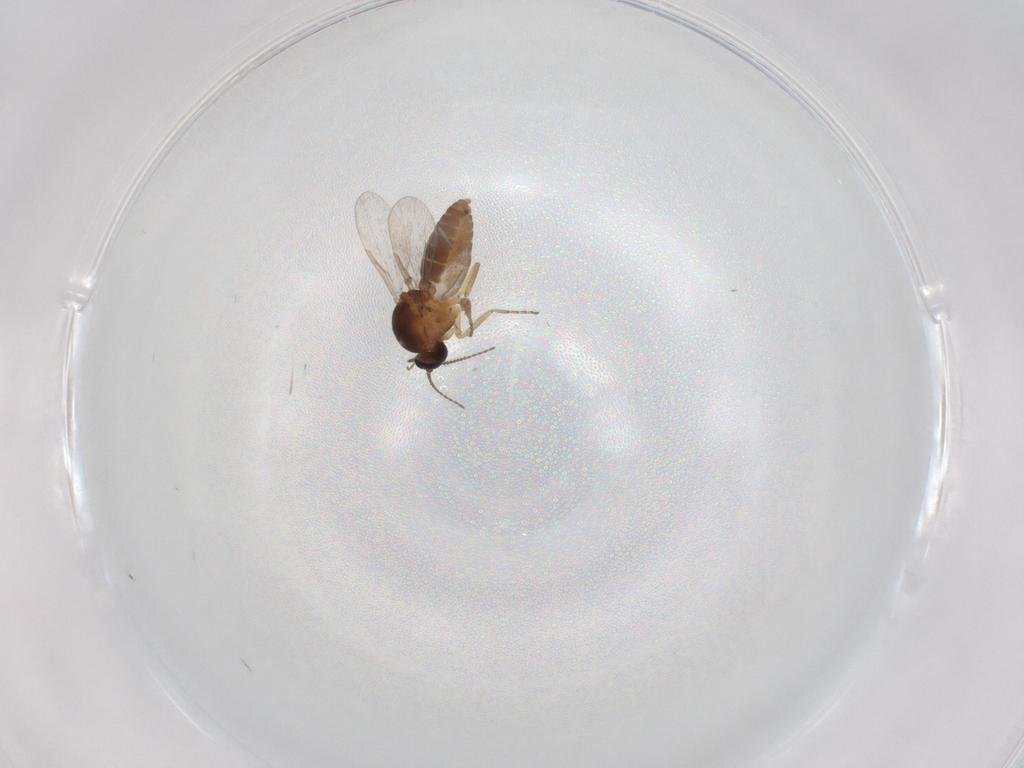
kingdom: Animalia
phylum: Arthropoda
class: Insecta
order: Diptera
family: Ceratopogonidae
